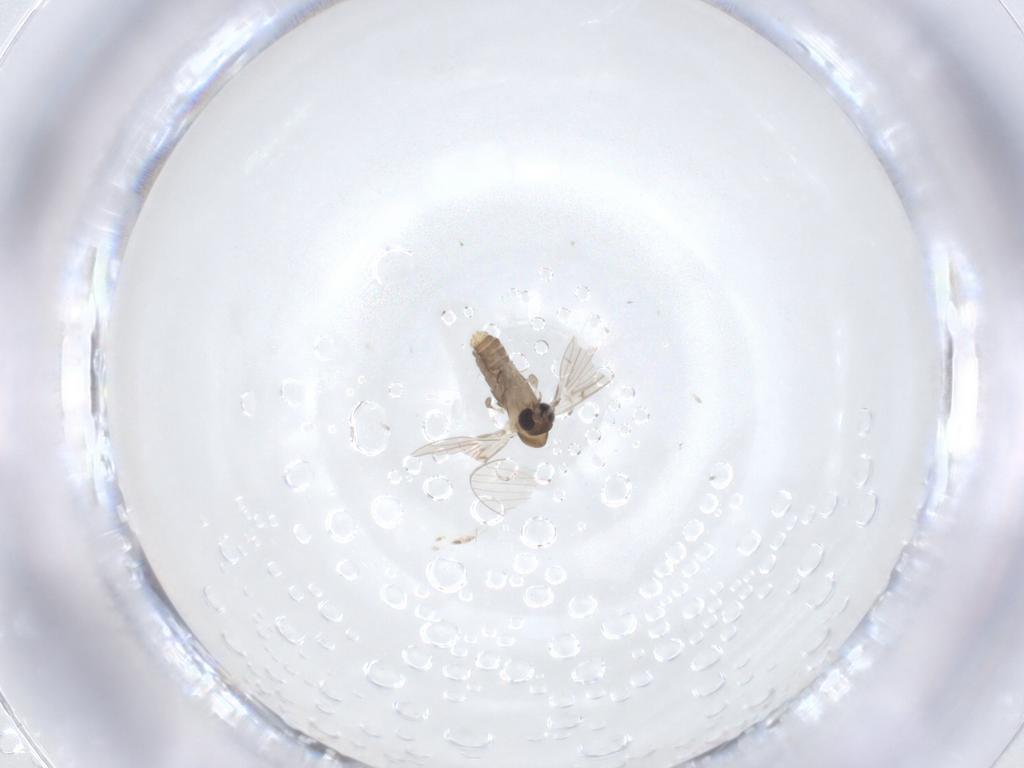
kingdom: Animalia
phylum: Arthropoda
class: Insecta
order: Diptera
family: Psychodidae
